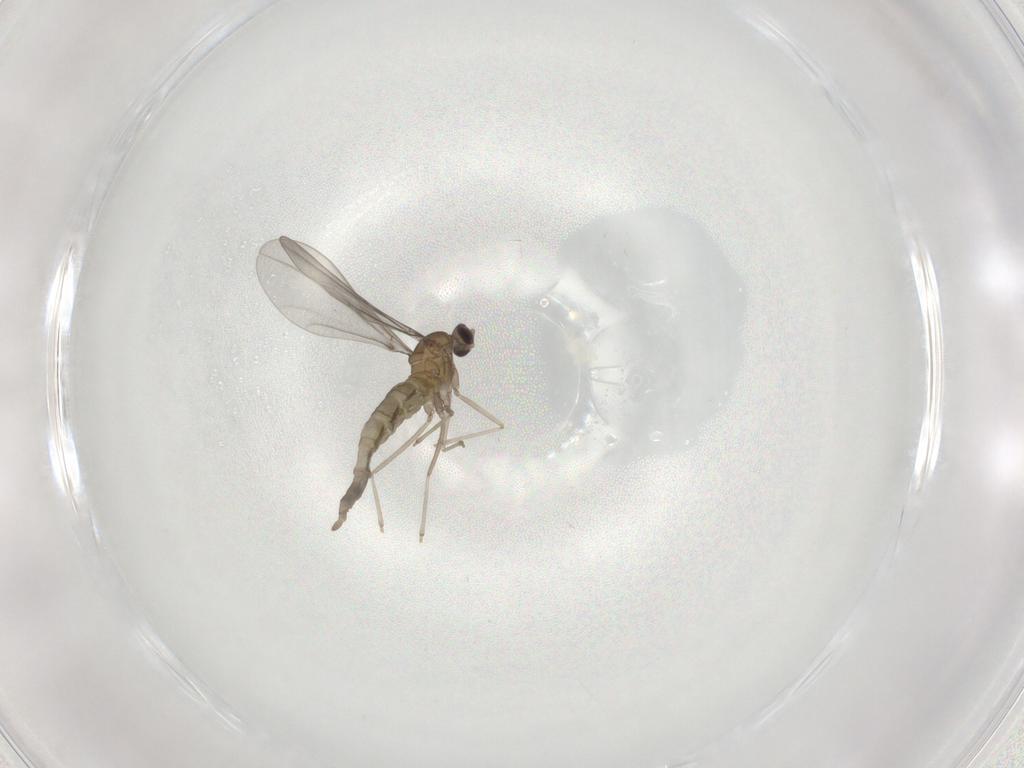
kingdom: Animalia
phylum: Arthropoda
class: Insecta
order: Diptera
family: Cecidomyiidae
